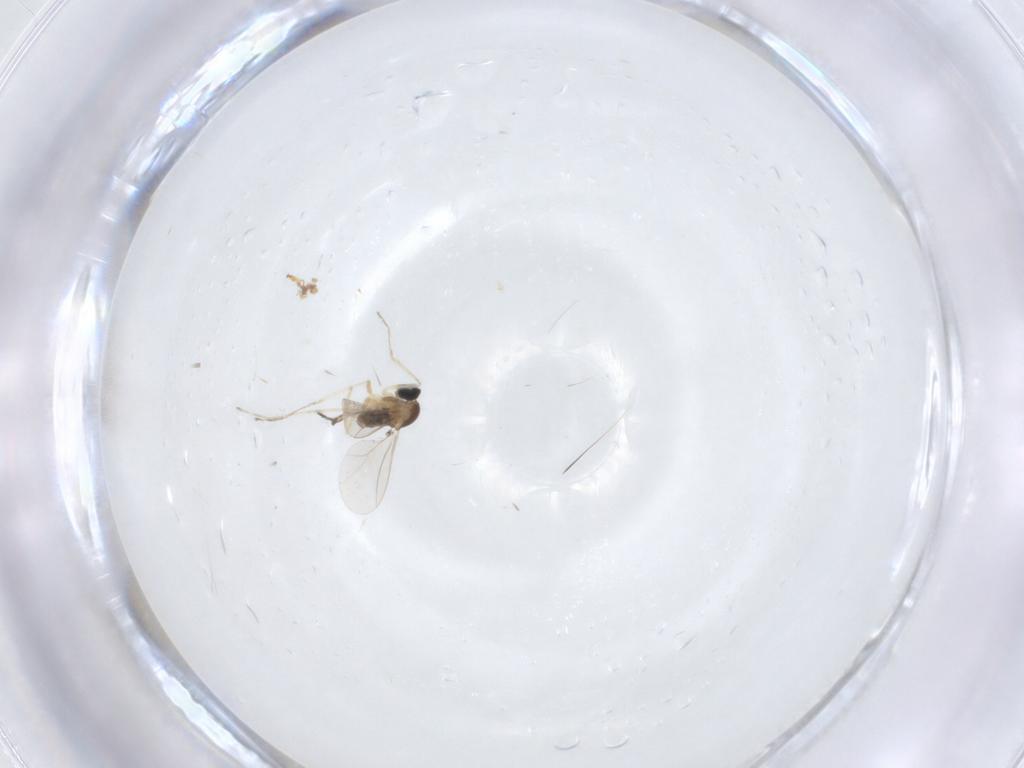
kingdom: Animalia
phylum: Arthropoda
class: Insecta
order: Diptera
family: Cecidomyiidae
